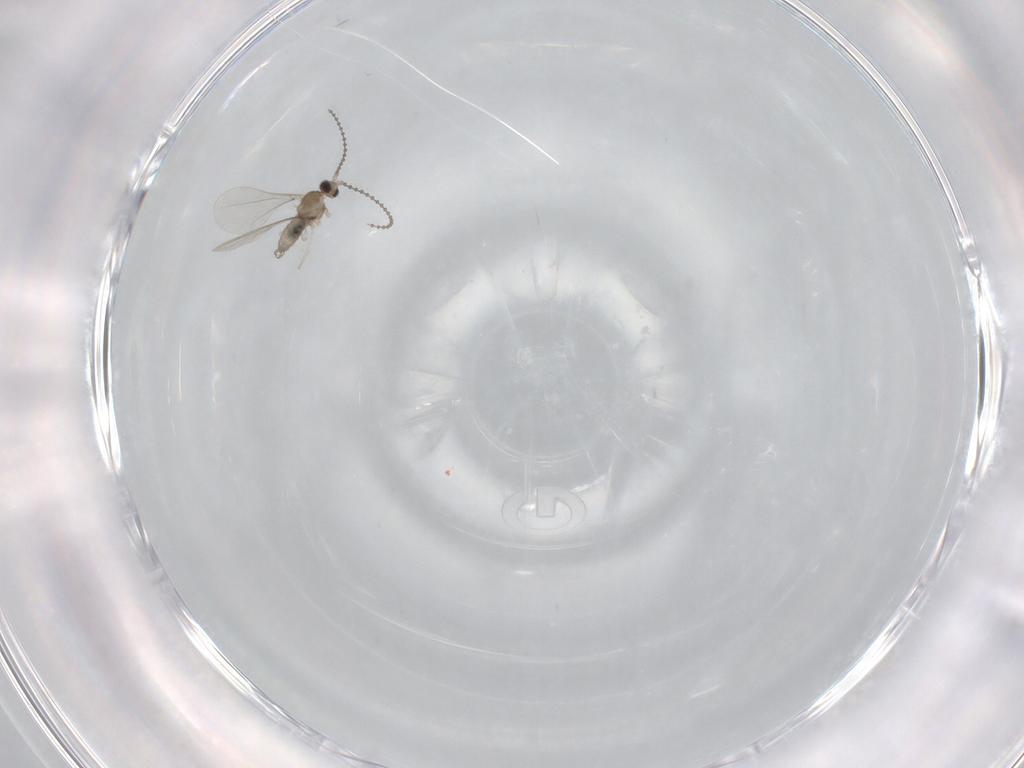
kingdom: Animalia
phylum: Arthropoda
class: Insecta
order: Diptera
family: Cecidomyiidae
